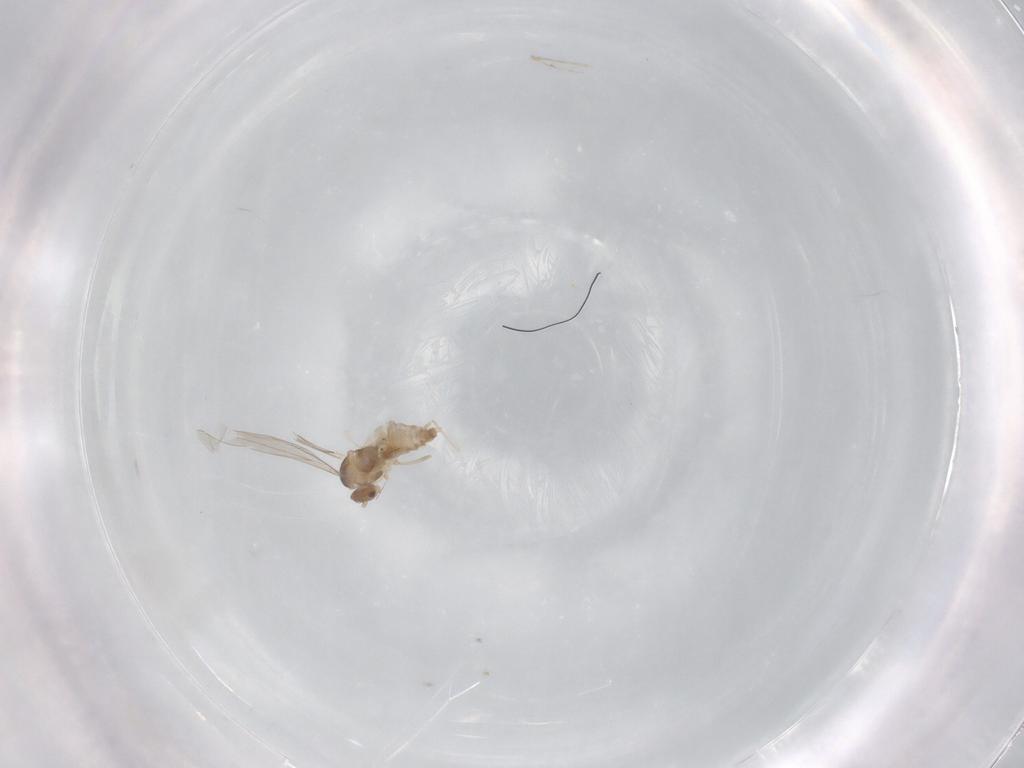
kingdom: Animalia
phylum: Arthropoda
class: Insecta
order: Diptera
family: Cecidomyiidae
